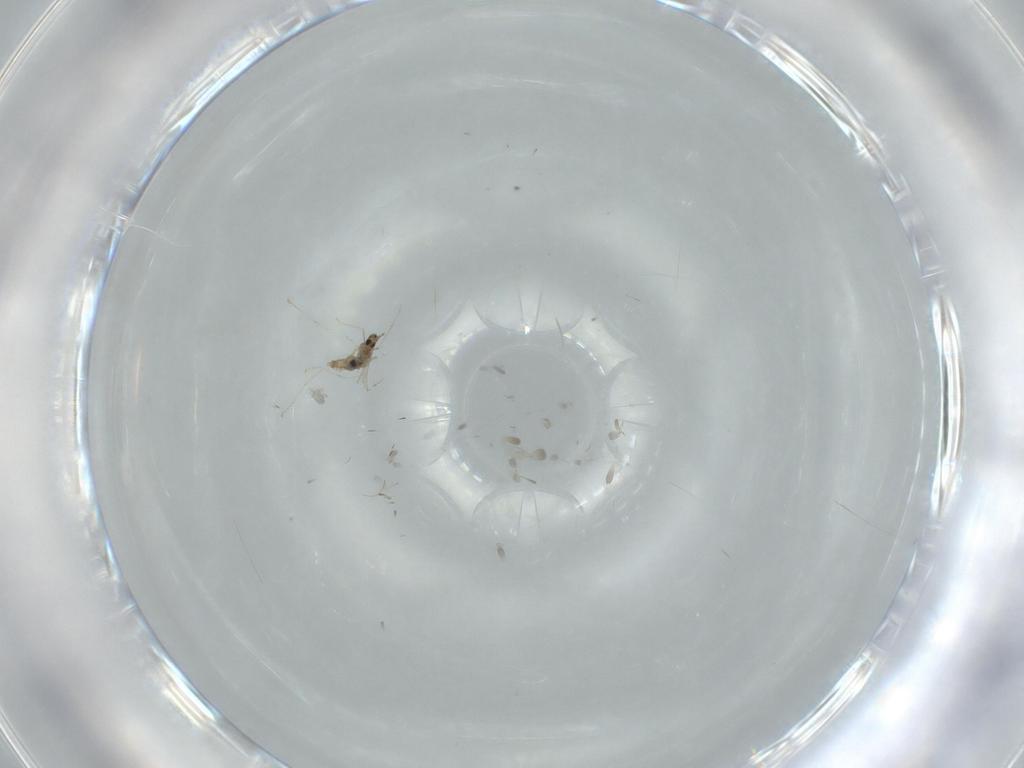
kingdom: Animalia
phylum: Arthropoda
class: Insecta
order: Diptera
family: Cecidomyiidae
